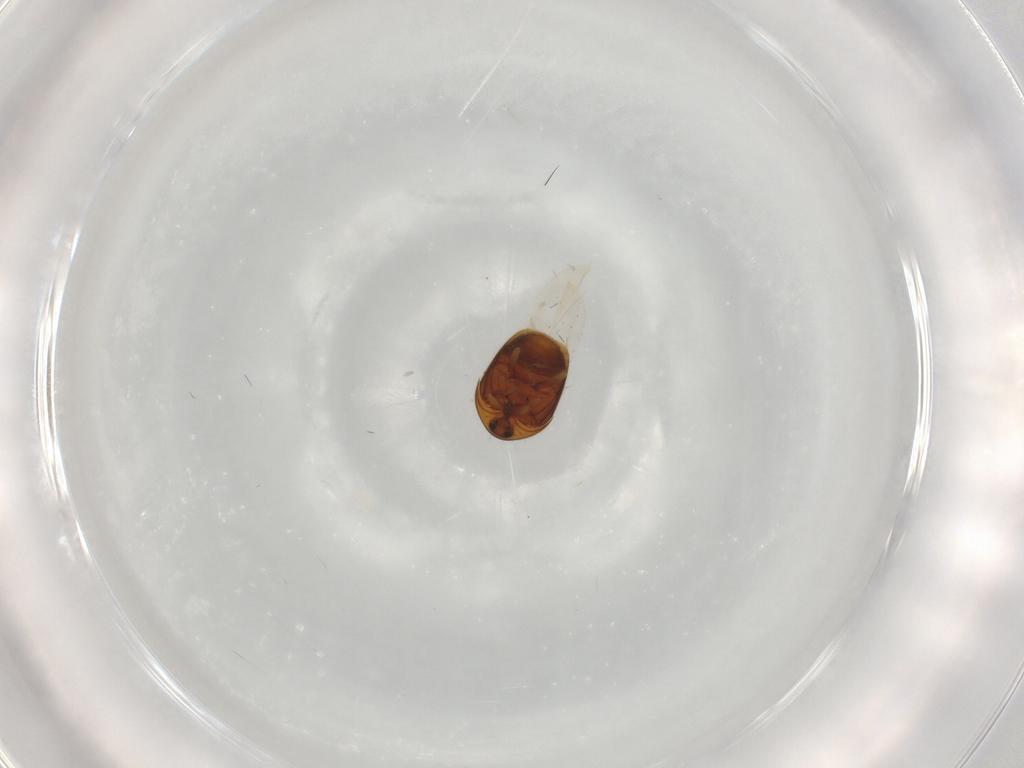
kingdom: Animalia
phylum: Arthropoda
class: Insecta
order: Coleoptera
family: Corylophidae
